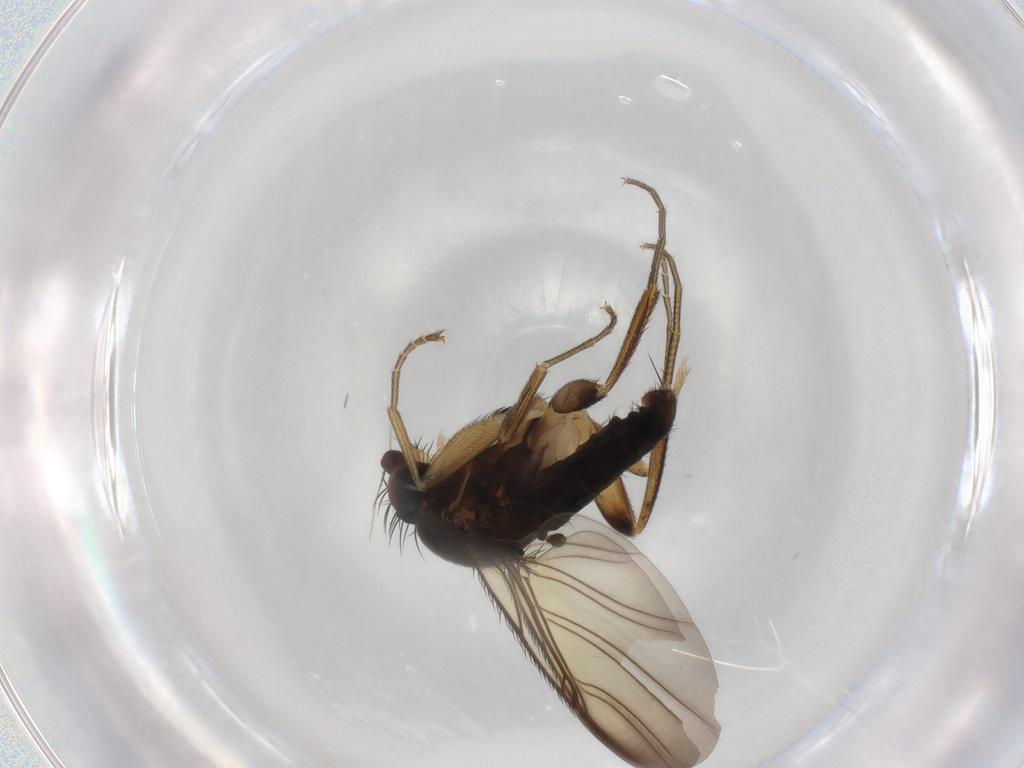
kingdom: Animalia
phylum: Arthropoda
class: Insecta
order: Diptera
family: Phoridae
